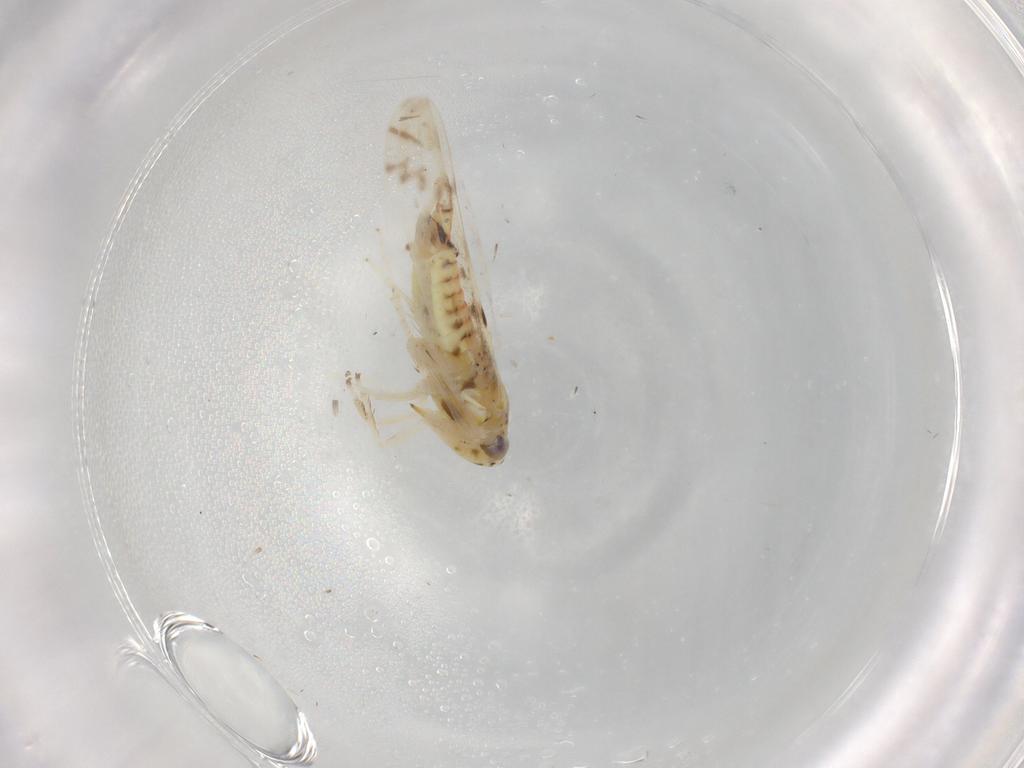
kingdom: Animalia
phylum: Arthropoda
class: Insecta
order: Hemiptera
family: Cicadellidae
